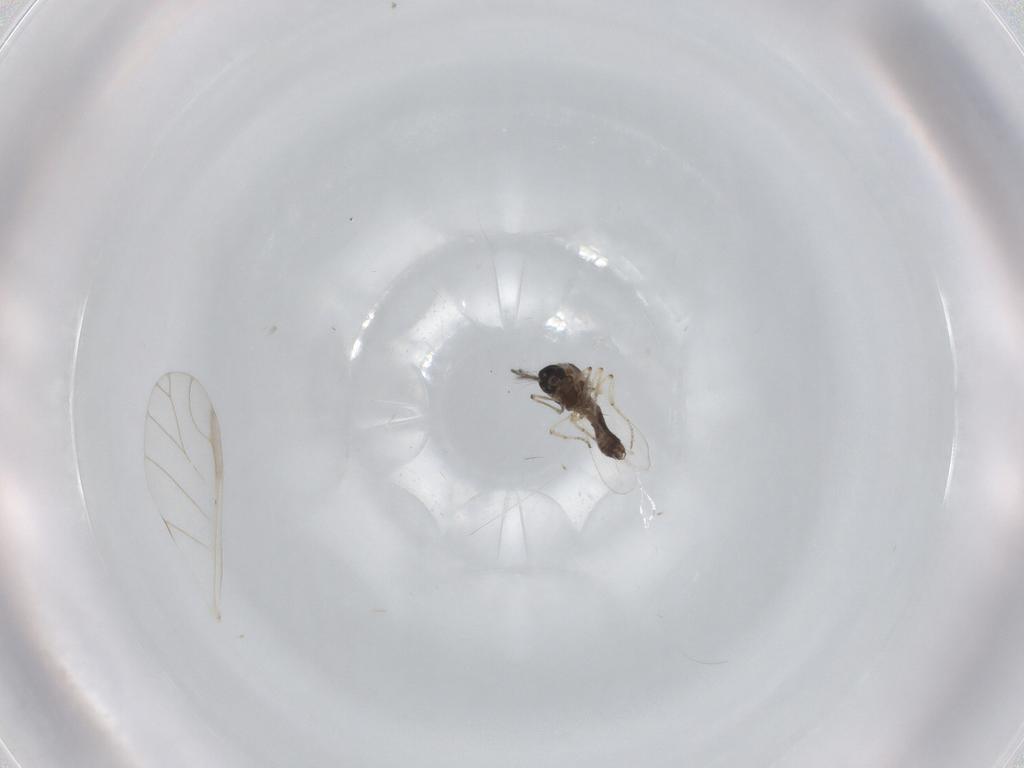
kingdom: Animalia
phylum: Arthropoda
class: Insecta
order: Diptera
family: Ceratopogonidae
